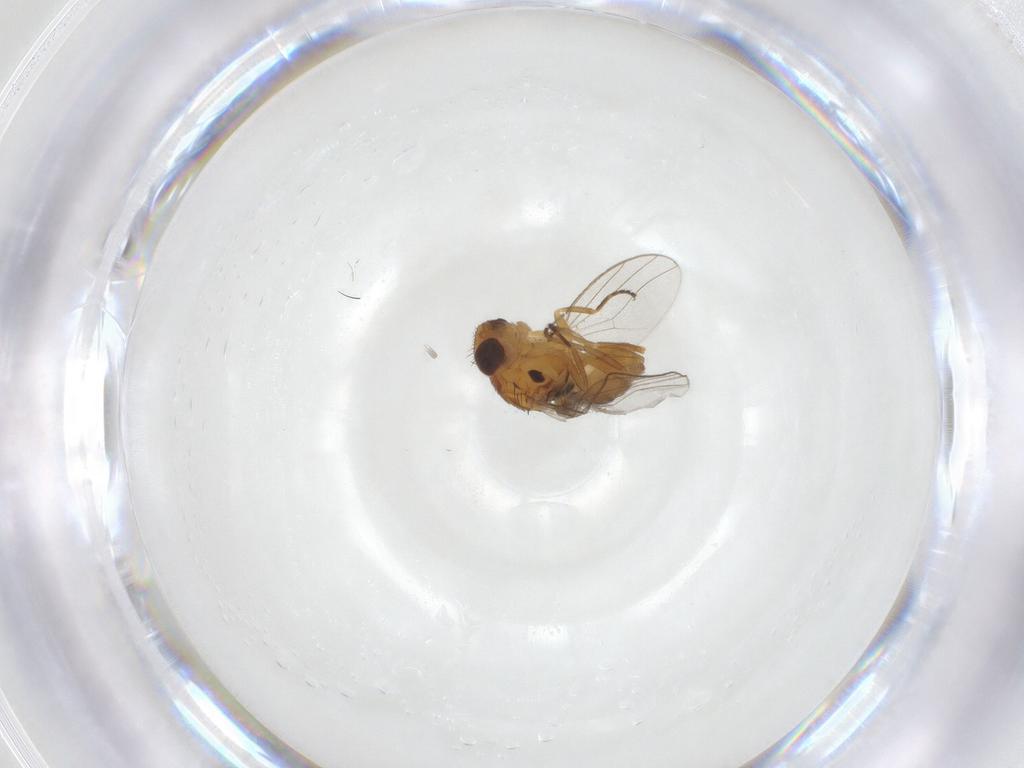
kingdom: Animalia
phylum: Arthropoda
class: Insecta
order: Diptera
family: Chloropidae
